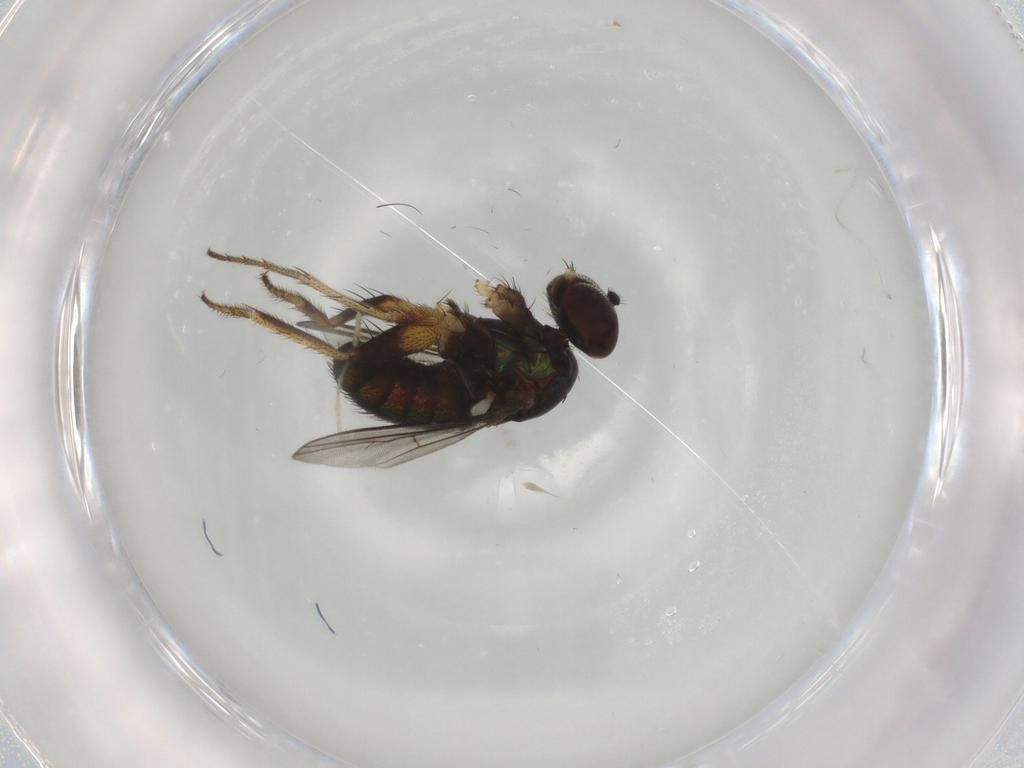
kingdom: Animalia
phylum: Arthropoda
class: Insecta
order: Diptera
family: Dolichopodidae
